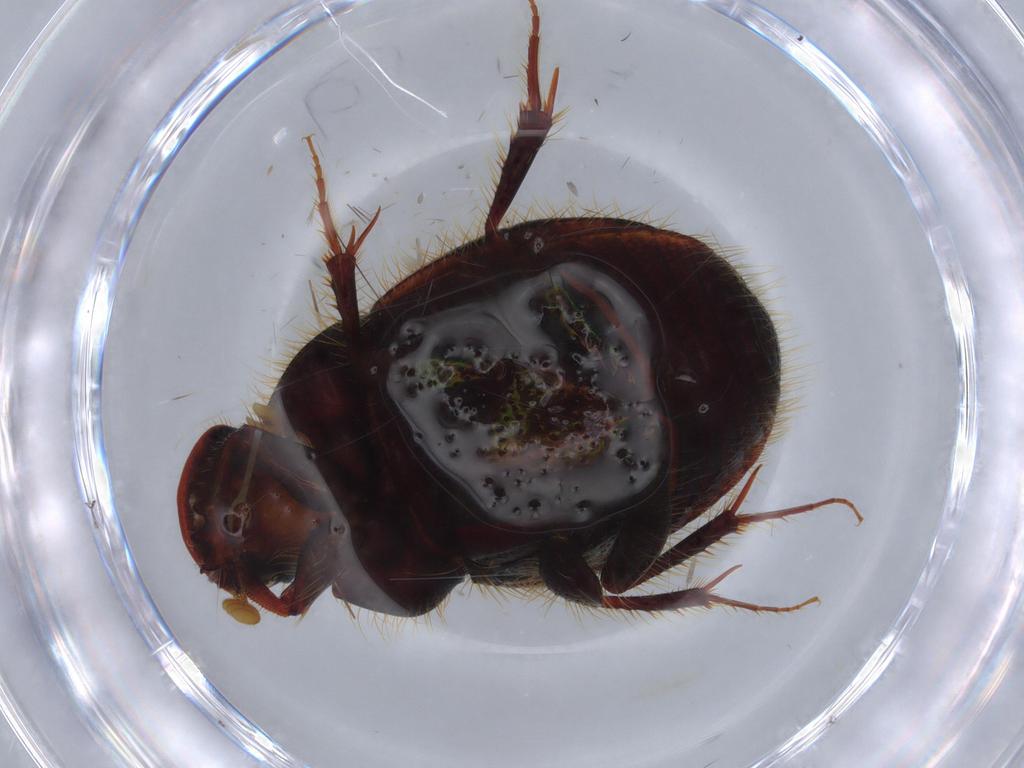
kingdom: Animalia
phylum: Arthropoda
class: Insecta
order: Coleoptera
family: Scarabaeidae
